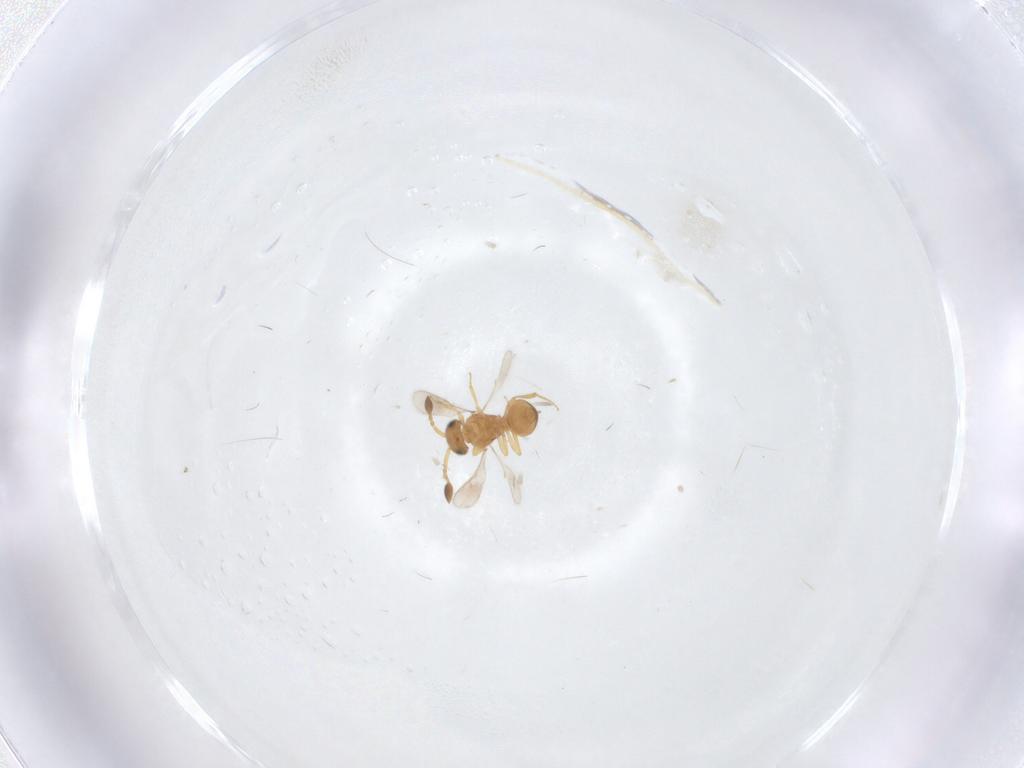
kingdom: Animalia
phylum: Arthropoda
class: Insecta
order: Hymenoptera
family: Scelionidae
